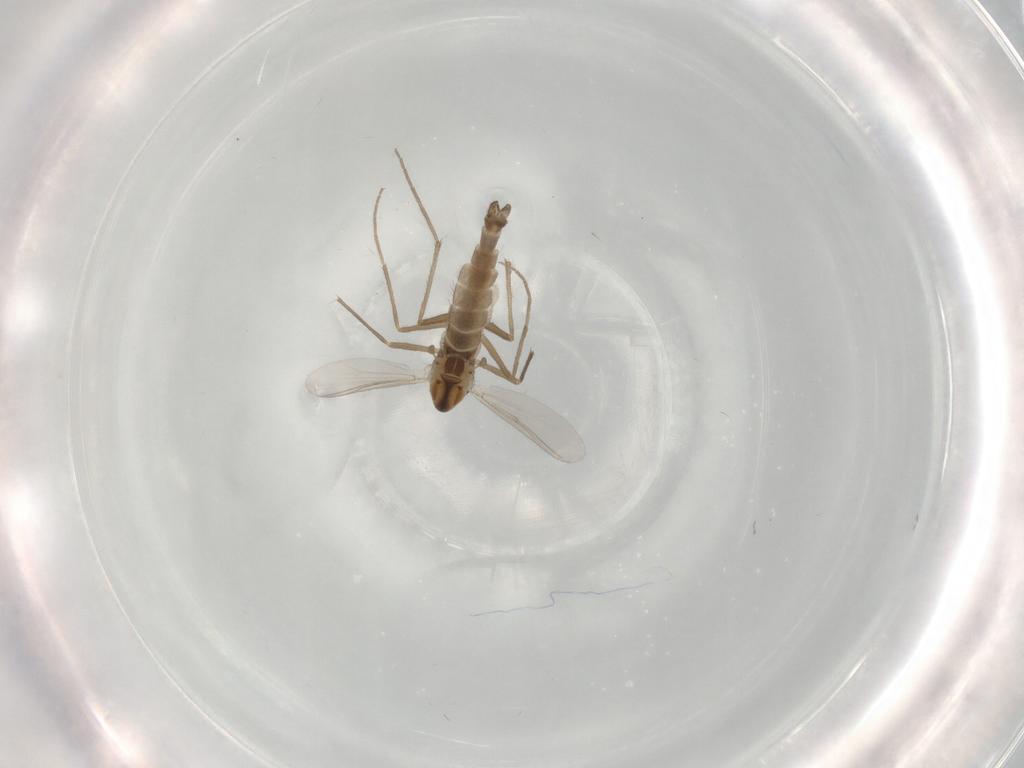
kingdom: Animalia
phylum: Arthropoda
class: Insecta
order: Diptera
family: Chironomidae
